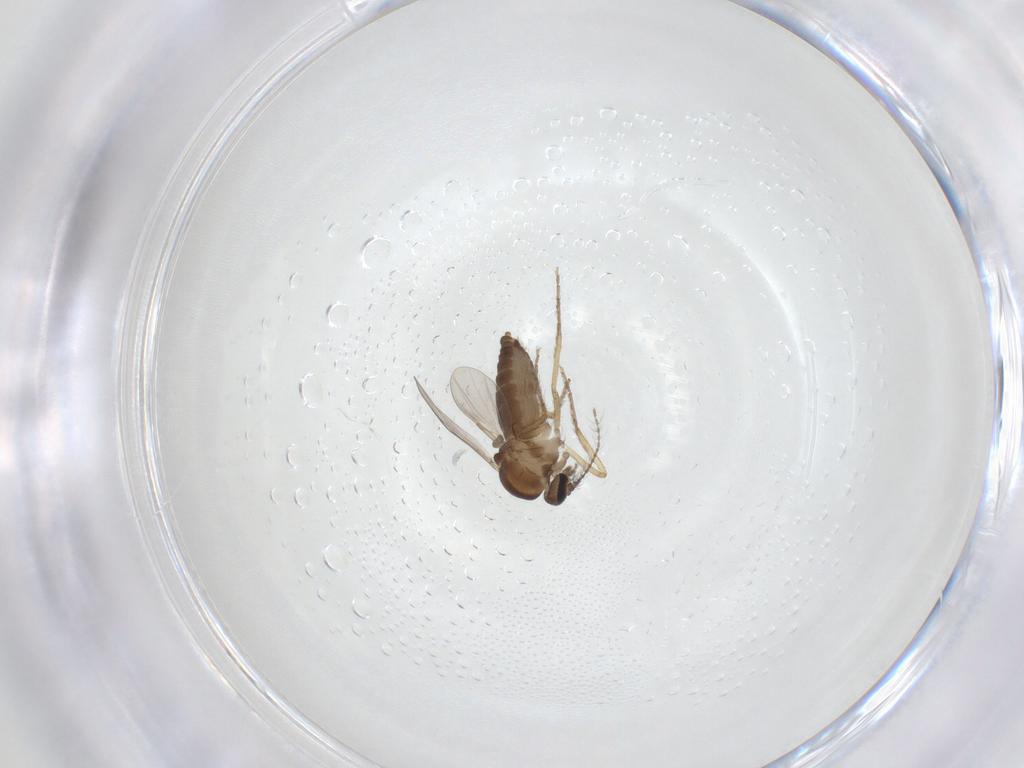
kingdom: Animalia
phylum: Arthropoda
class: Insecta
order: Diptera
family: Ceratopogonidae
